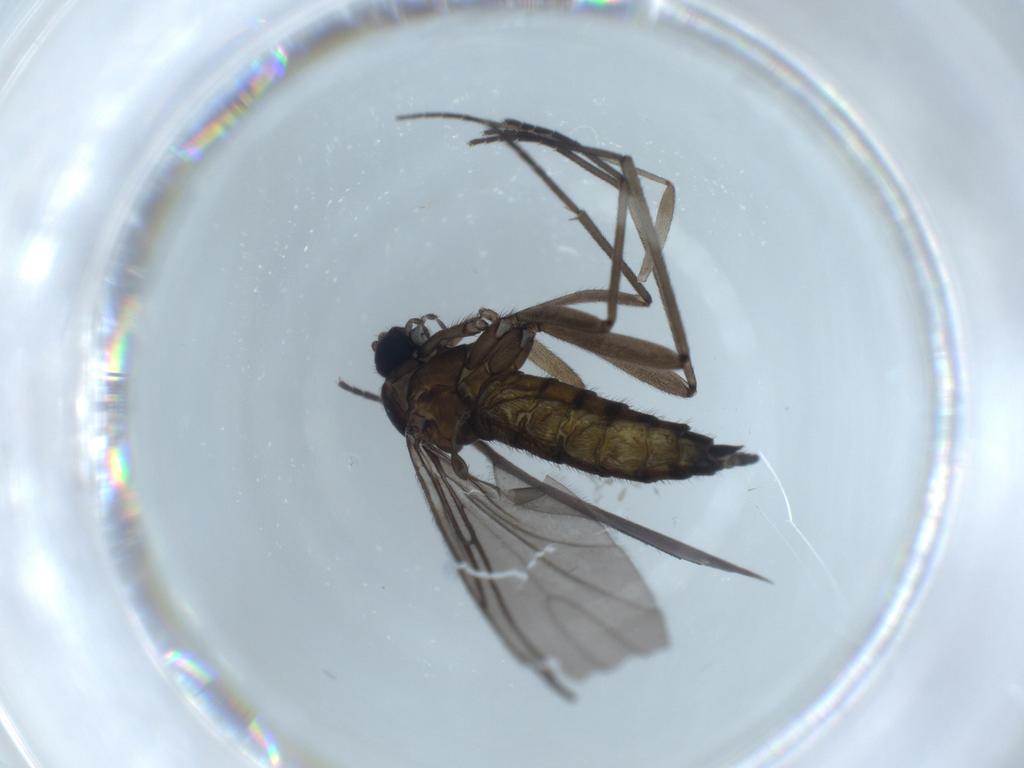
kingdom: Animalia
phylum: Arthropoda
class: Insecta
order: Diptera
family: Sciaridae
